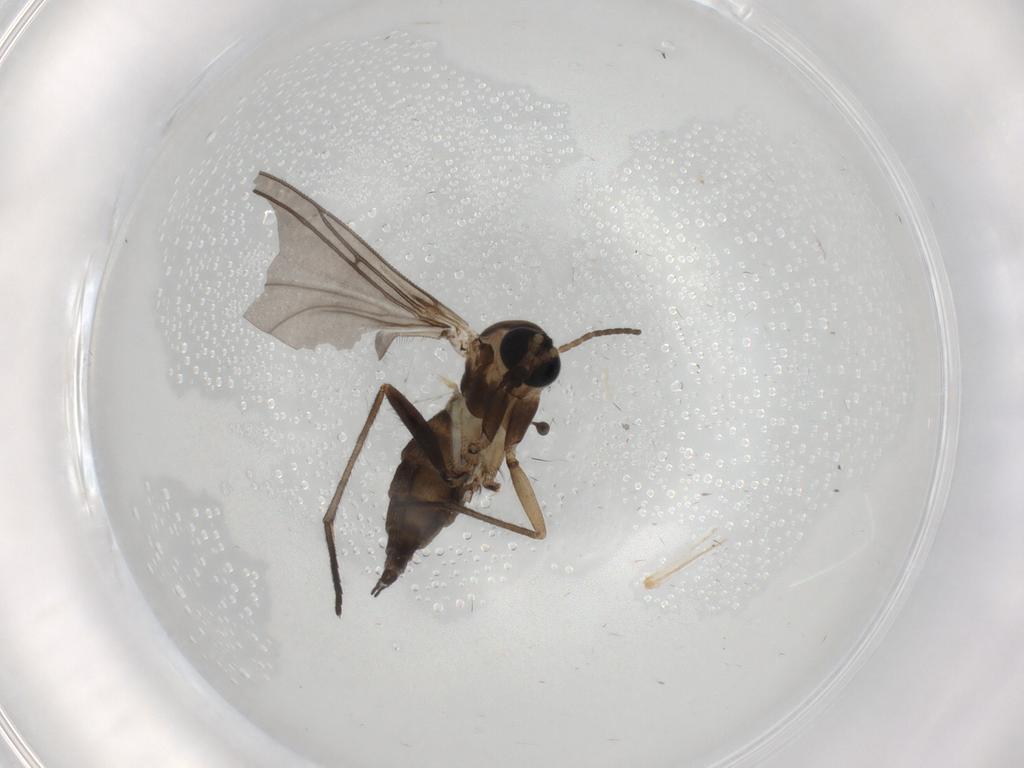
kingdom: Animalia
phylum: Arthropoda
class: Insecta
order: Diptera
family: Sciaridae
